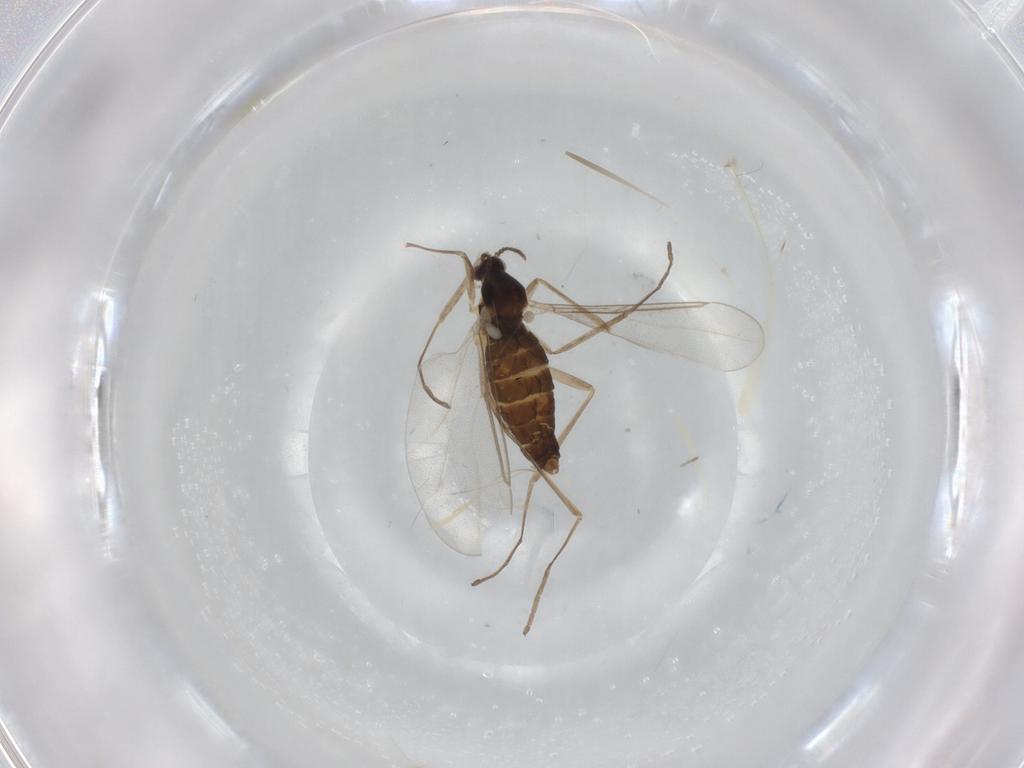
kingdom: Animalia
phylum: Arthropoda
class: Insecta
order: Diptera
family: Cecidomyiidae
